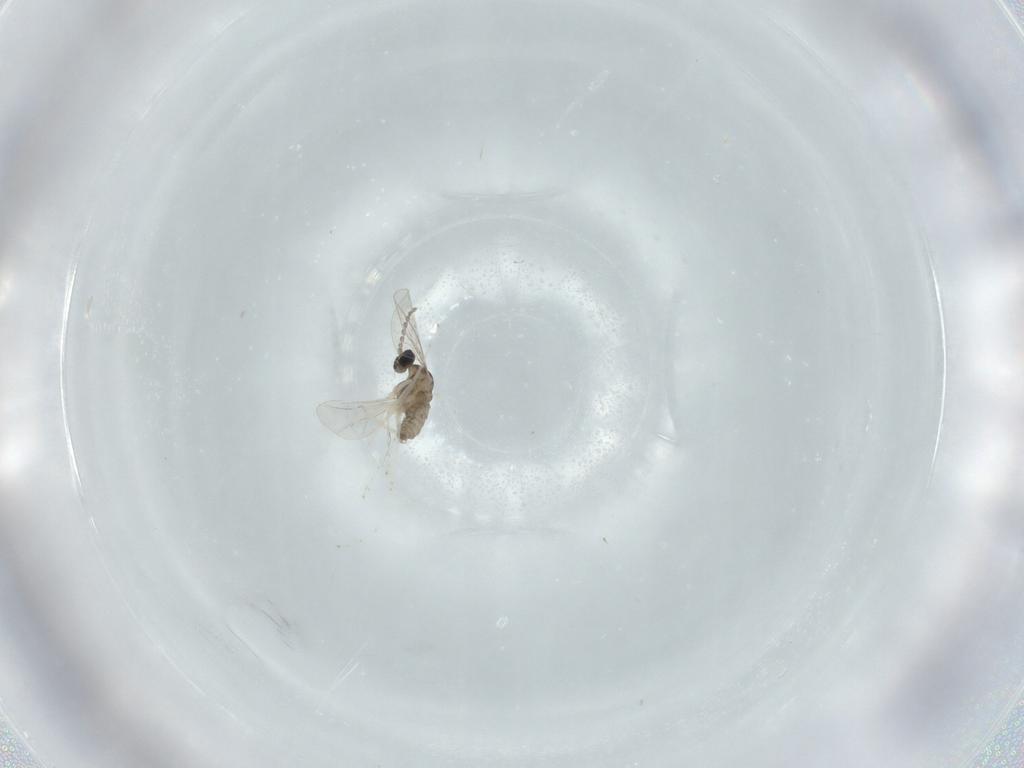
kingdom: Animalia
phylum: Arthropoda
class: Insecta
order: Diptera
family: Cecidomyiidae
